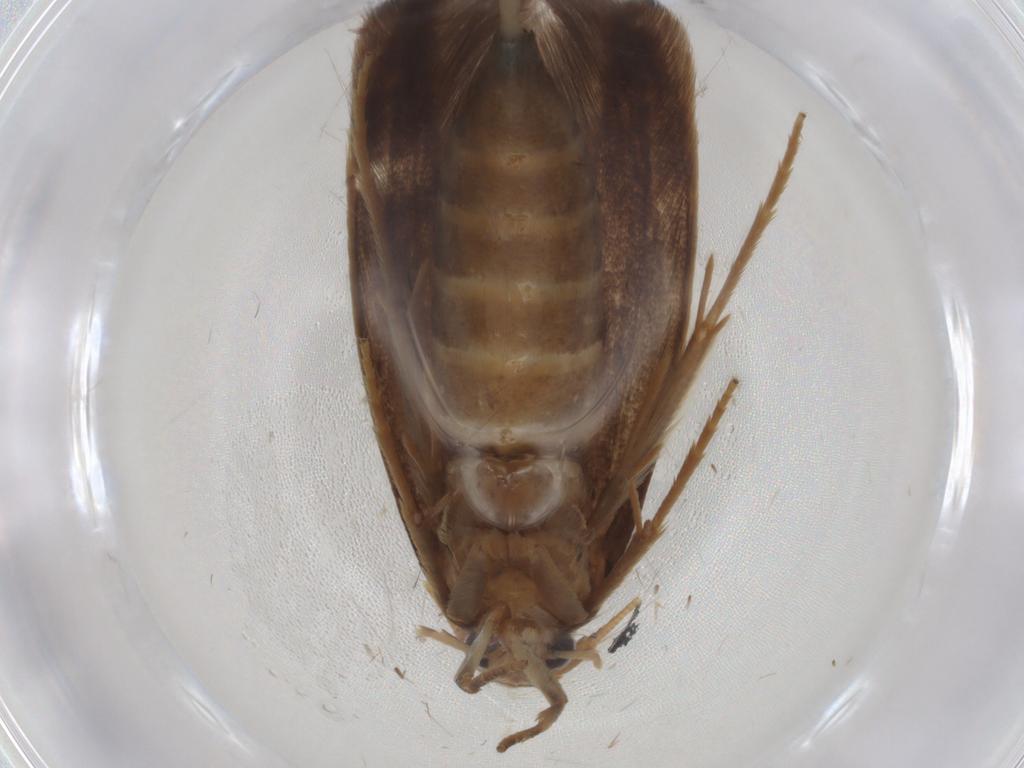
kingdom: Animalia
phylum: Arthropoda
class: Insecta
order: Lepidoptera
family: Tineidae
